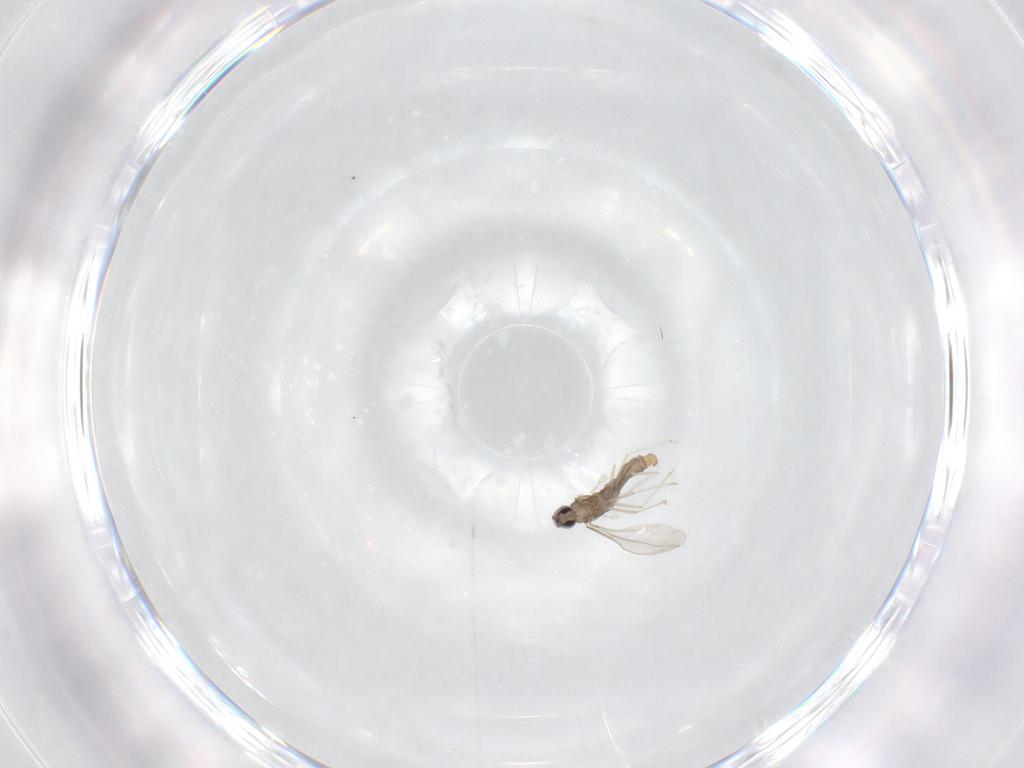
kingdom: Animalia
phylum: Arthropoda
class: Insecta
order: Diptera
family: Cecidomyiidae
